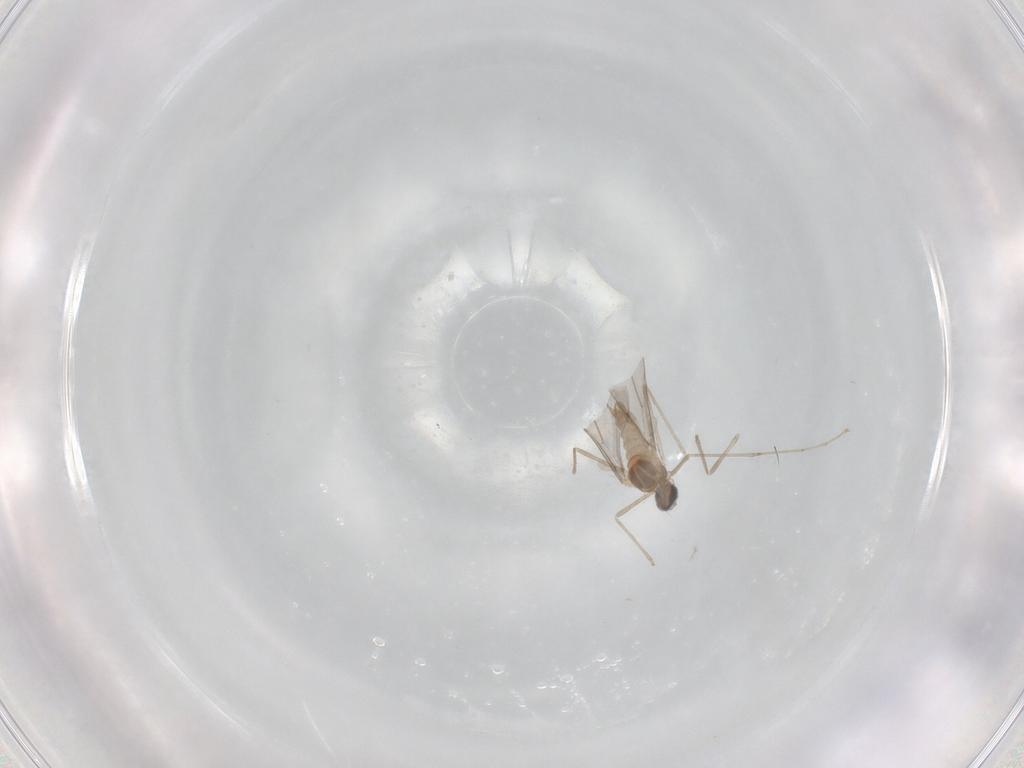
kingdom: Animalia
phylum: Arthropoda
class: Insecta
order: Diptera
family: Cecidomyiidae
